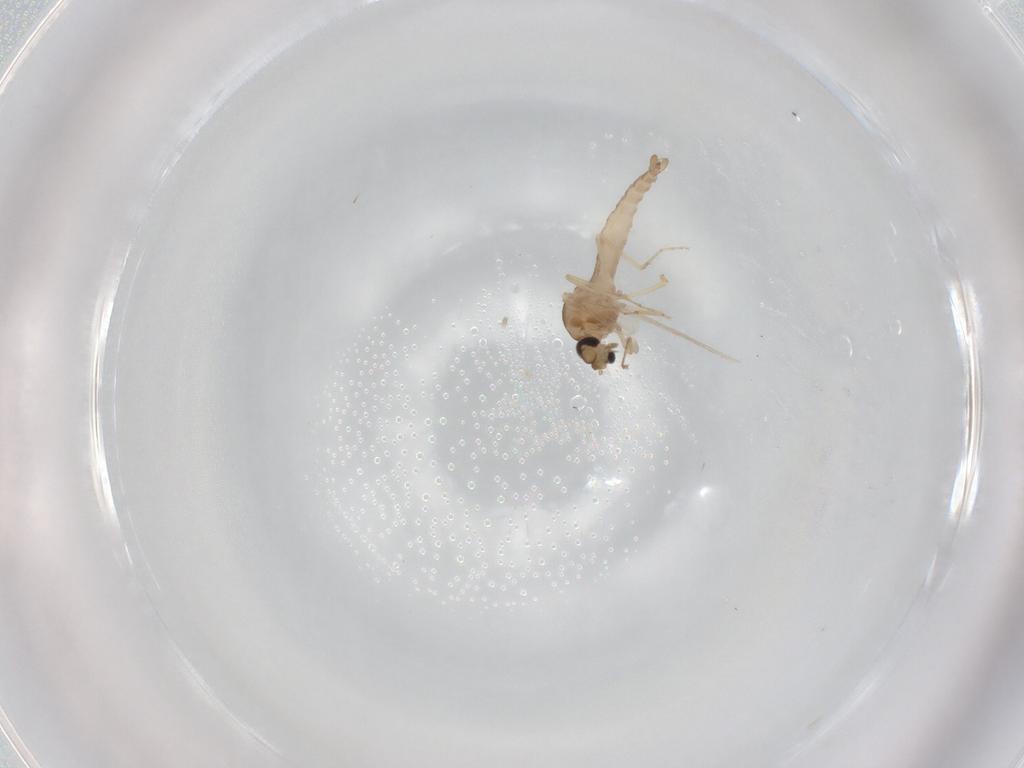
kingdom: Animalia
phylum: Arthropoda
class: Insecta
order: Diptera
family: Ceratopogonidae
